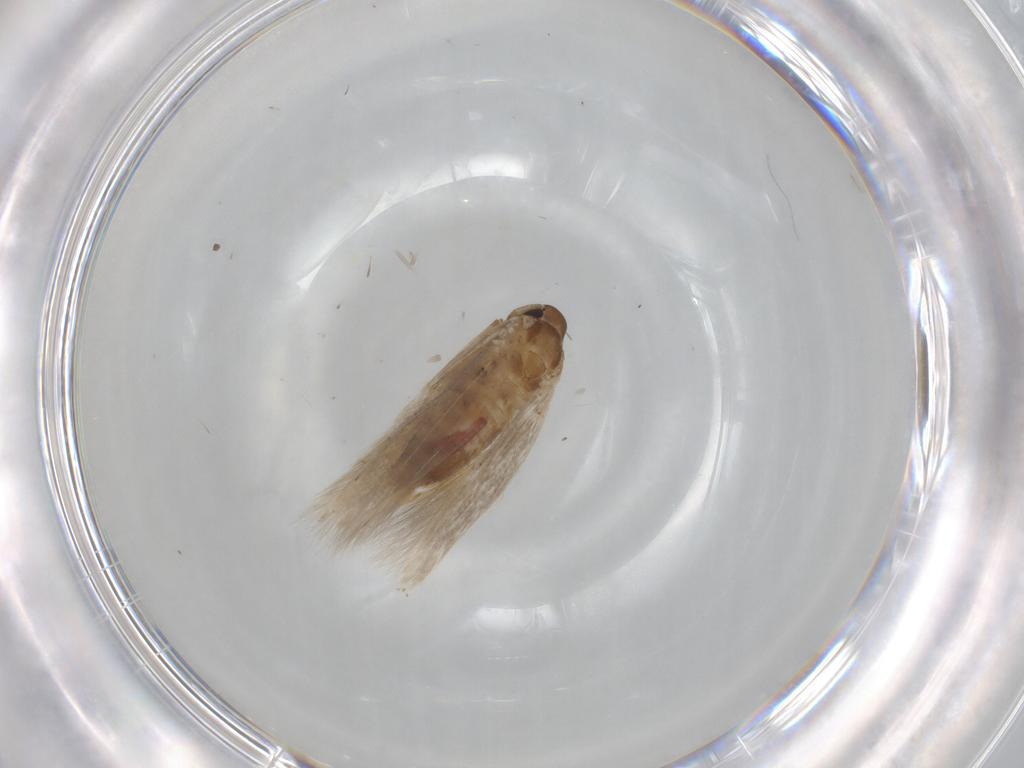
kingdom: Animalia
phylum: Arthropoda
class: Insecta
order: Lepidoptera
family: Cosmopterigidae
